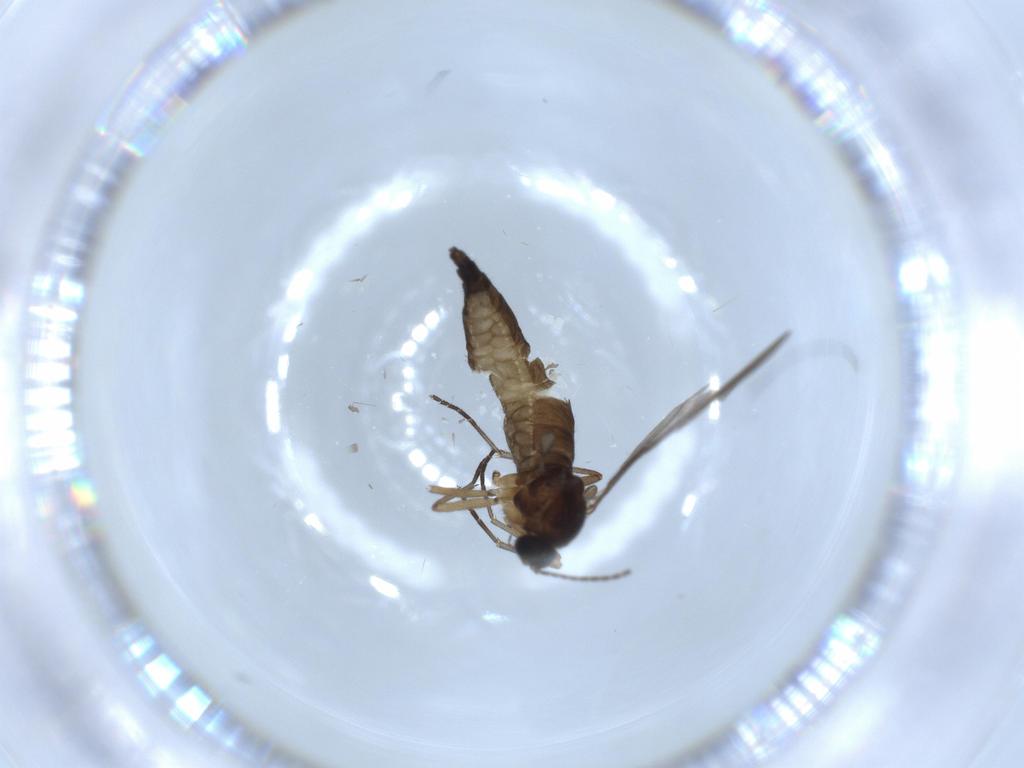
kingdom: Animalia
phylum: Arthropoda
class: Insecta
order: Diptera
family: Sciaridae
